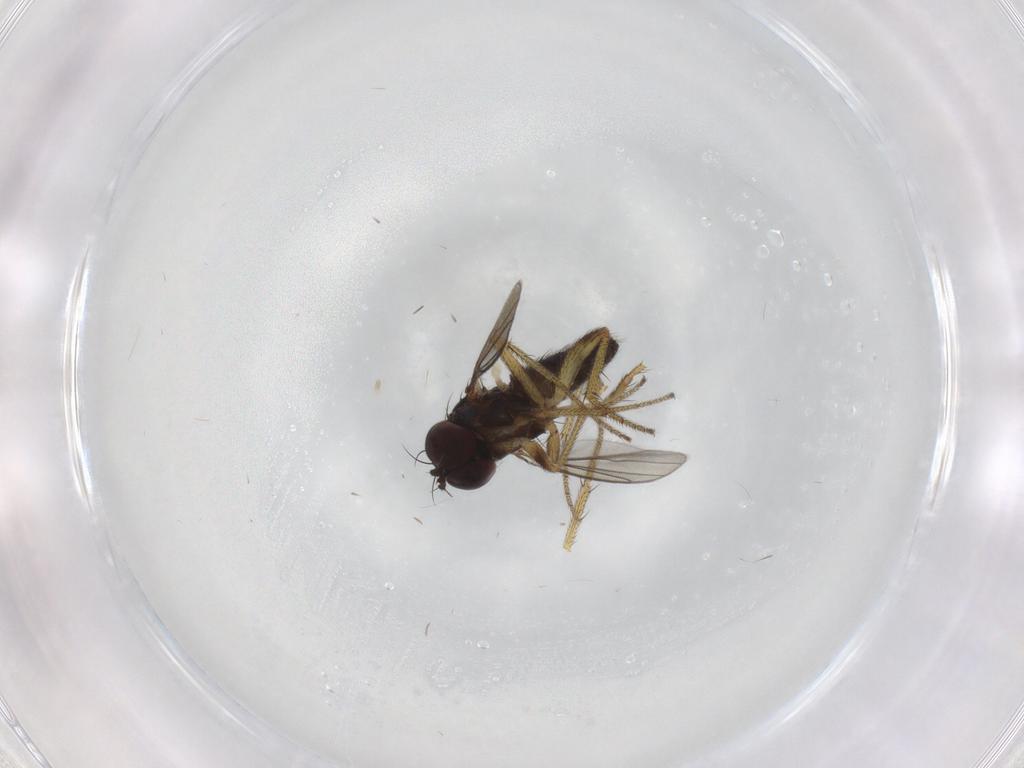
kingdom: Animalia
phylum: Arthropoda
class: Insecta
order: Diptera
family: Dolichopodidae
